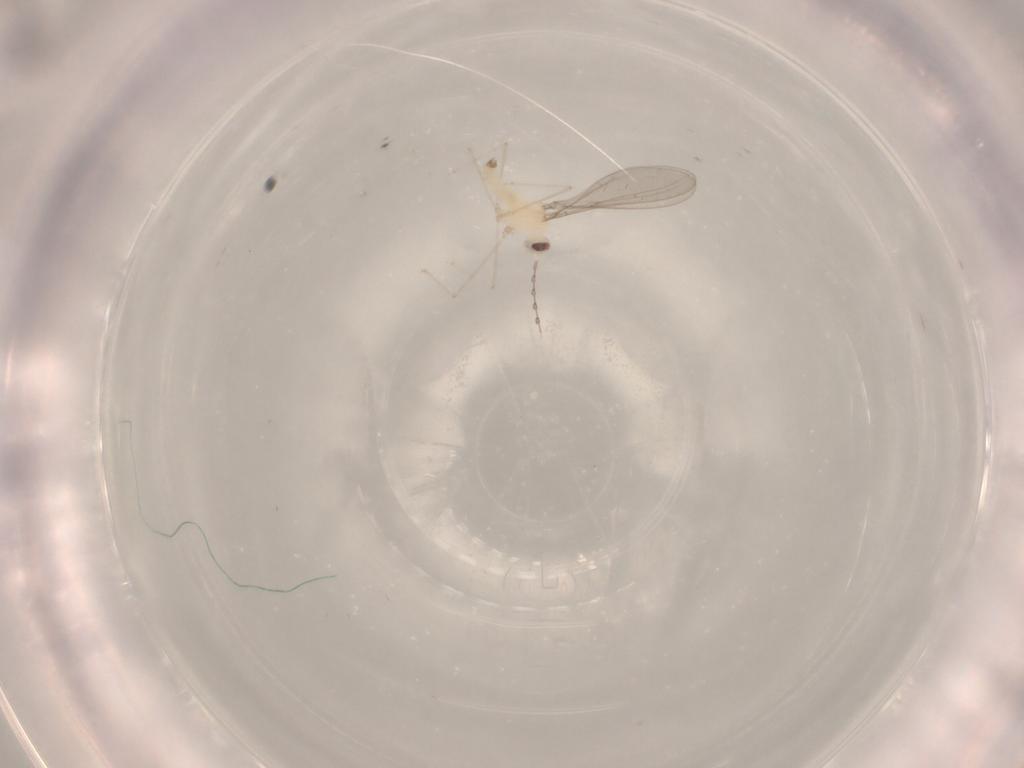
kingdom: Animalia
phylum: Arthropoda
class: Insecta
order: Diptera
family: Cecidomyiidae
